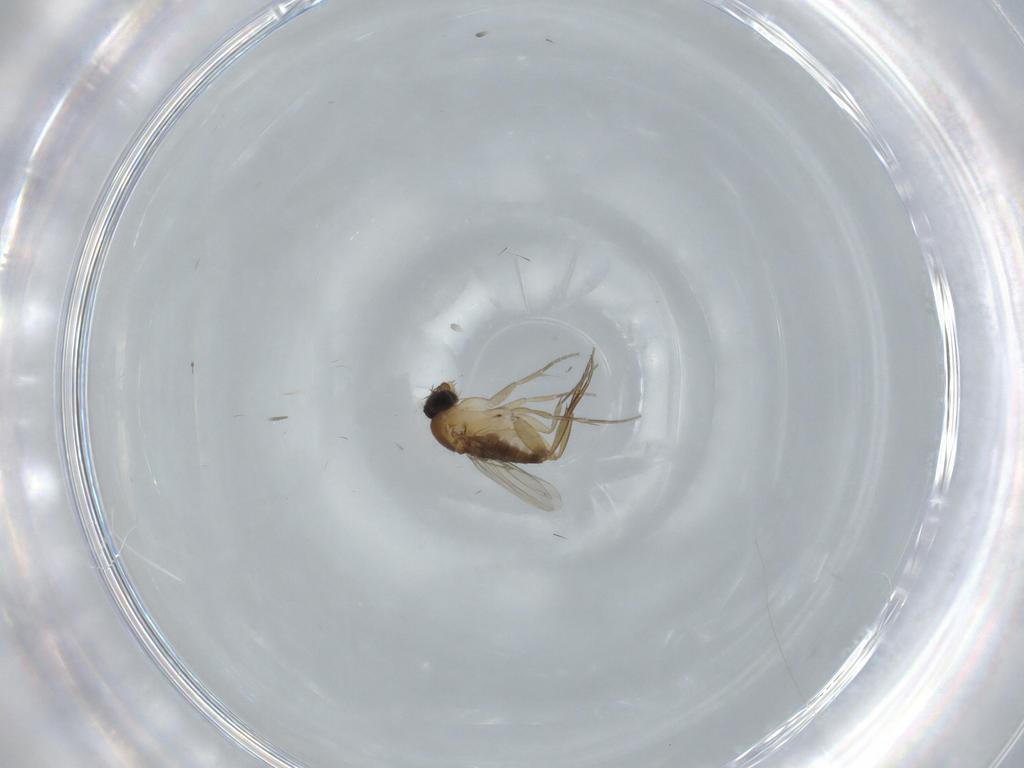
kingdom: Animalia
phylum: Arthropoda
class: Insecta
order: Diptera
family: Phoridae
